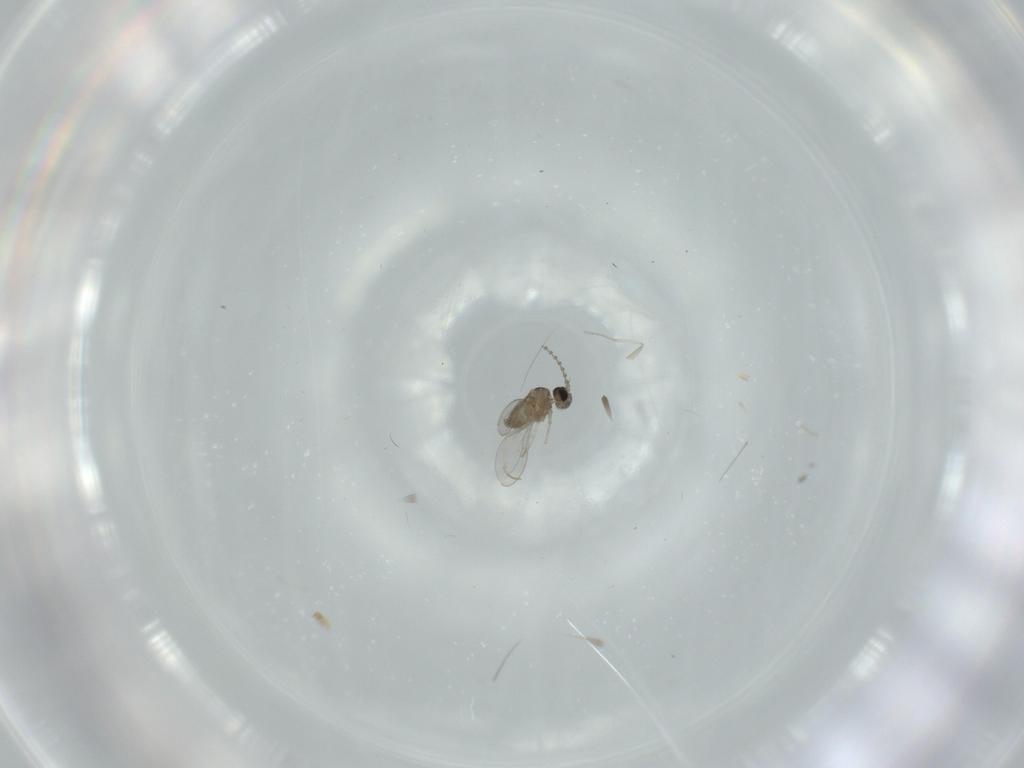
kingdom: Animalia
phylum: Arthropoda
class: Insecta
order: Diptera
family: Cecidomyiidae
